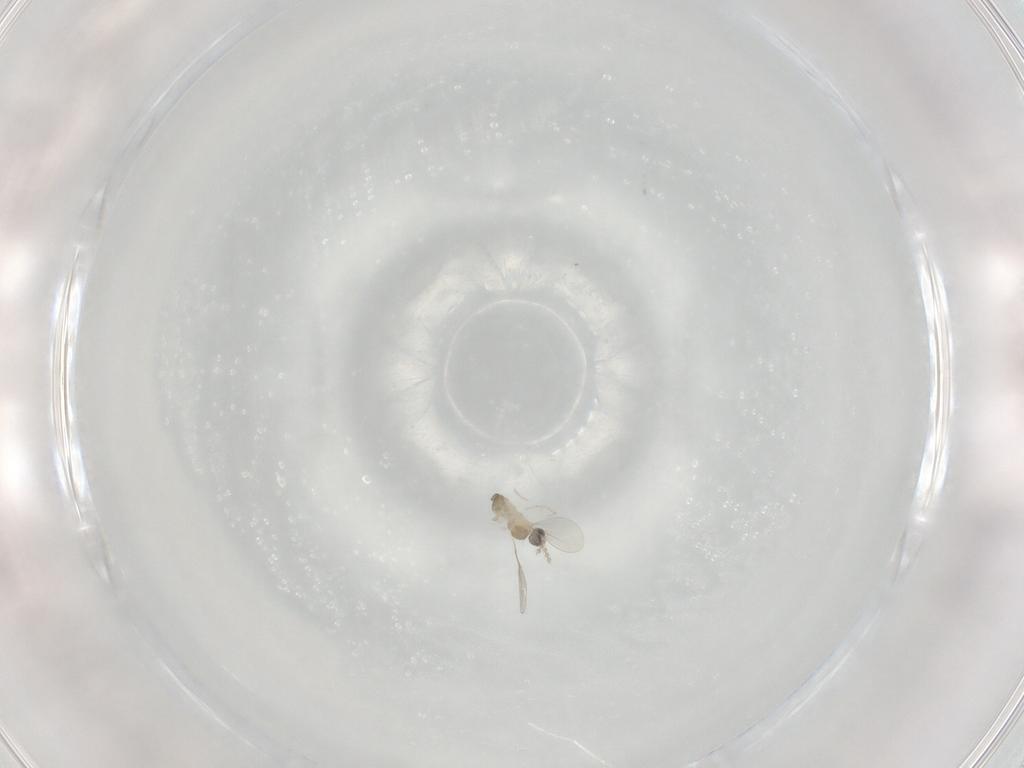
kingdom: Animalia
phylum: Arthropoda
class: Insecta
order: Diptera
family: Cecidomyiidae
